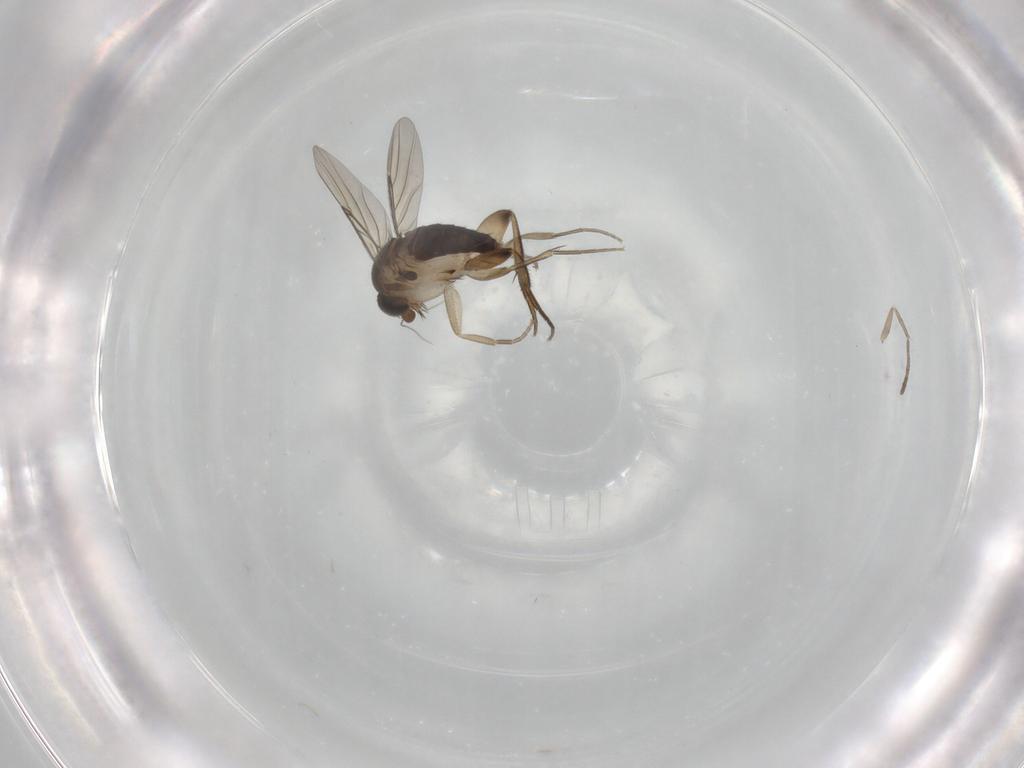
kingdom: Animalia
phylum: Arthropoda
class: Insecta
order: Diptera
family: Phoridae
